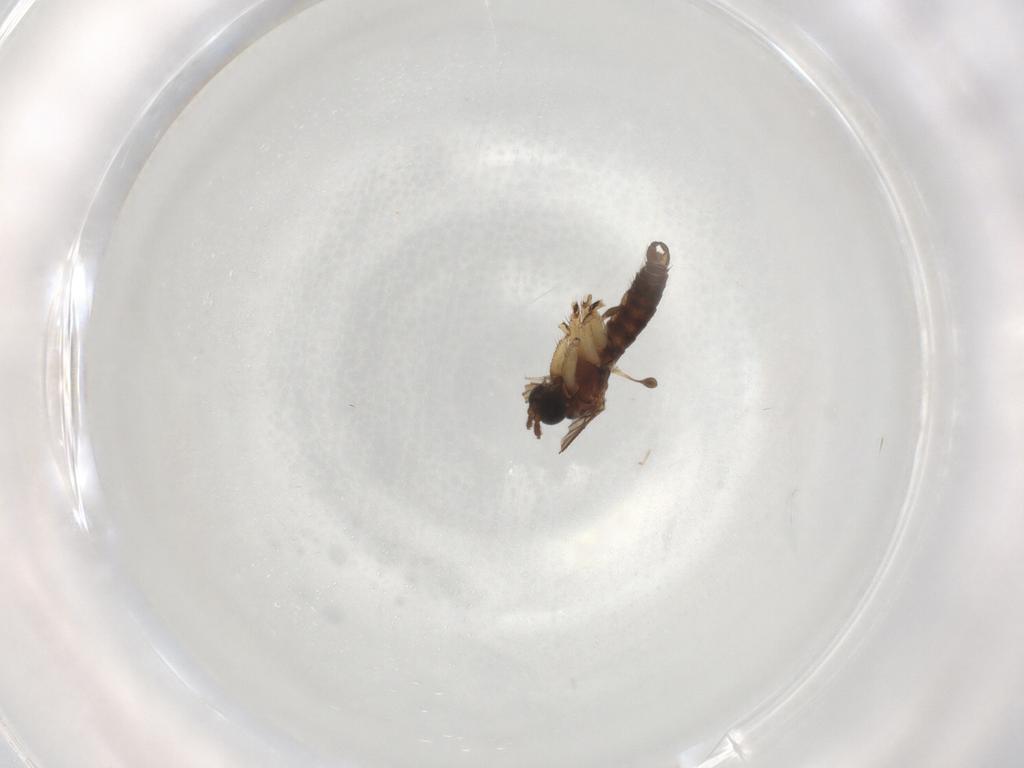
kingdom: Animalia
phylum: Arthropoda
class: Insecta
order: Diptera
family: Sciaridae
